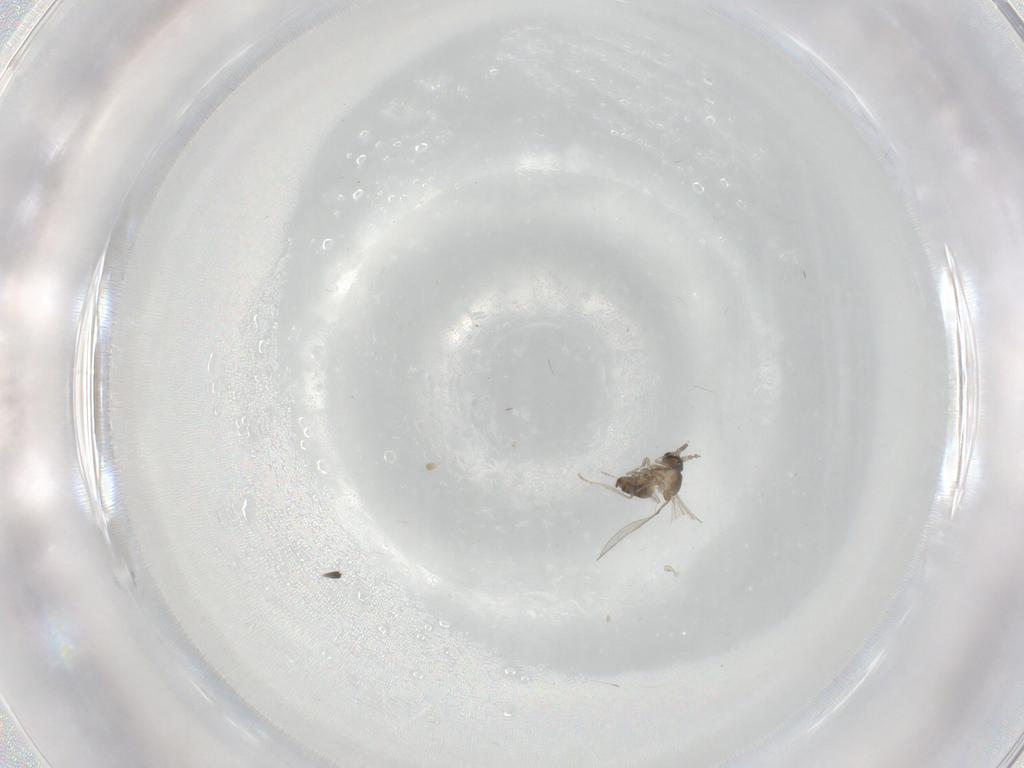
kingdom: Animalia
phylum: Arthropoda
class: Insecta
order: Diptera
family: Cecidomyiidae
